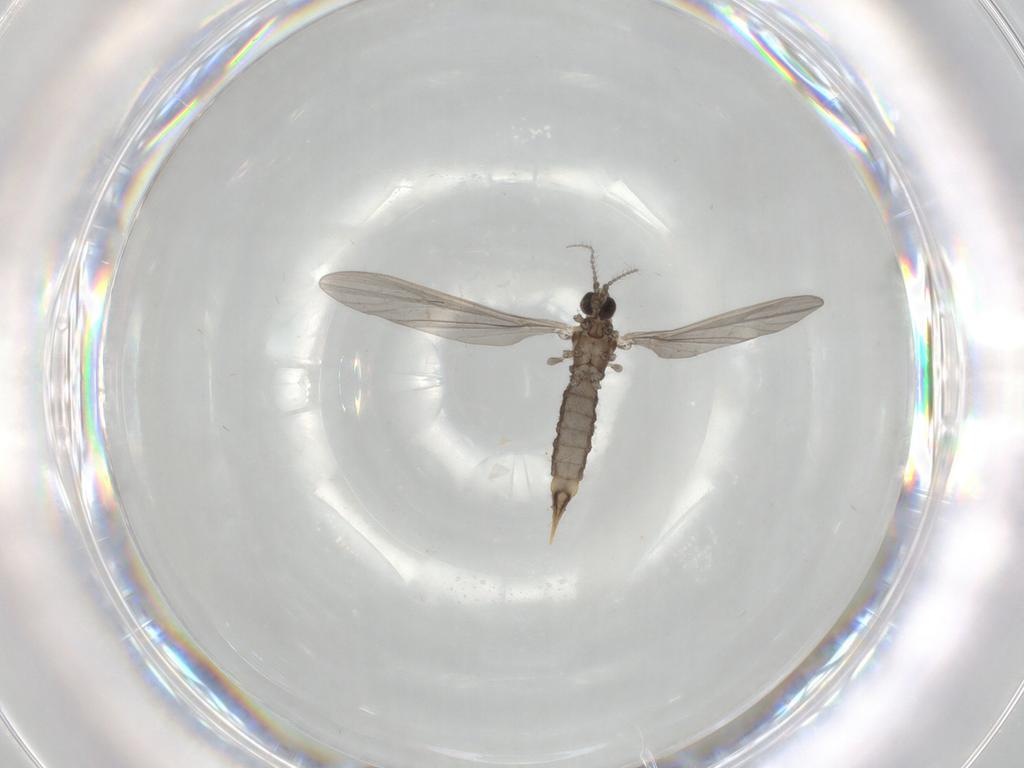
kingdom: Animalia
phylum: Arthropoda
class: Insecta
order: Diptera
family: Limoniidae
